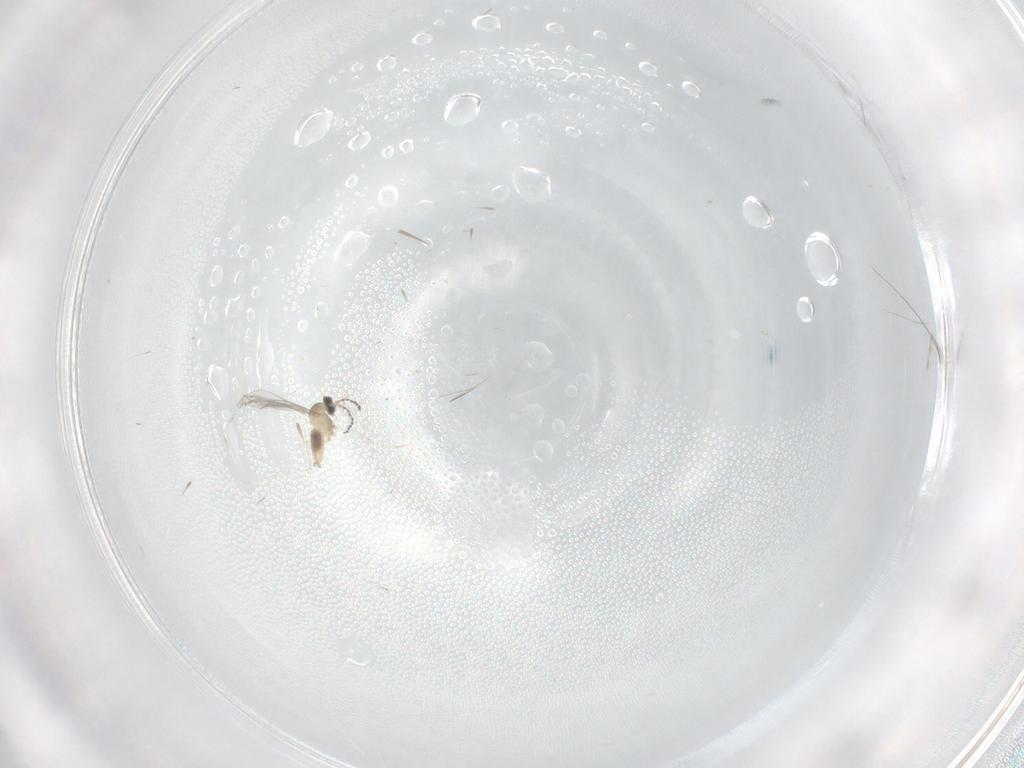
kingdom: Animalia
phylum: Arthropoda
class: Insecta
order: Diptera
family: Cecidomyiidae
